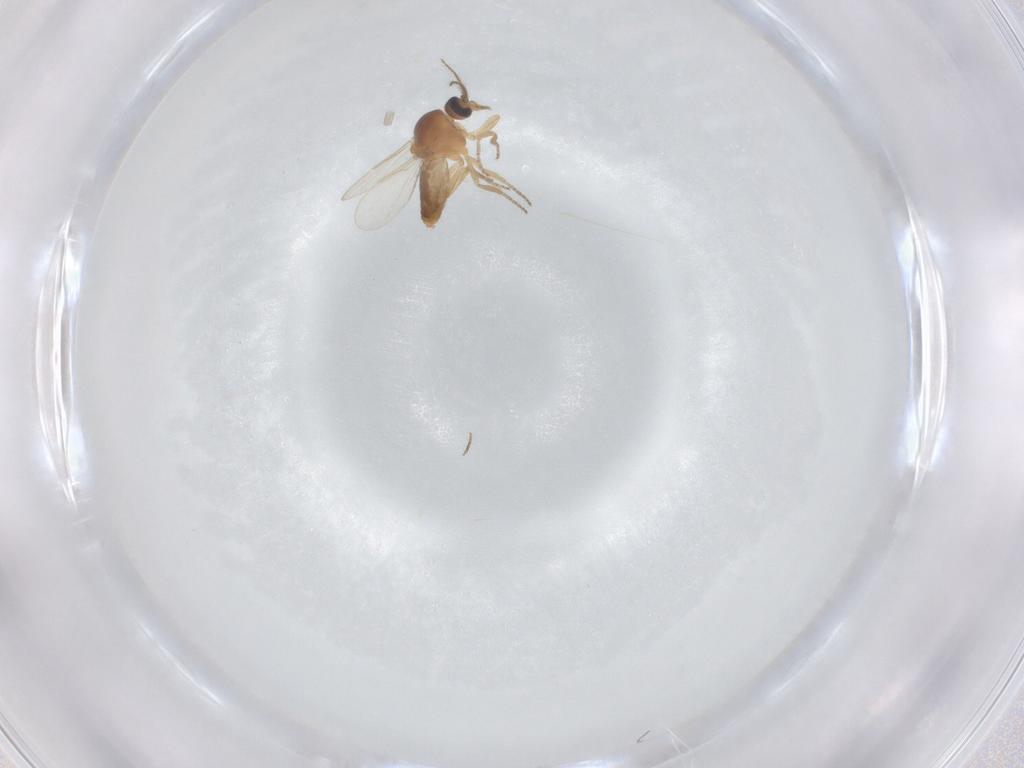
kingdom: Animalia
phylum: Arthropoda
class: Insecta
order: Diptera
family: Ceratopogonidae
